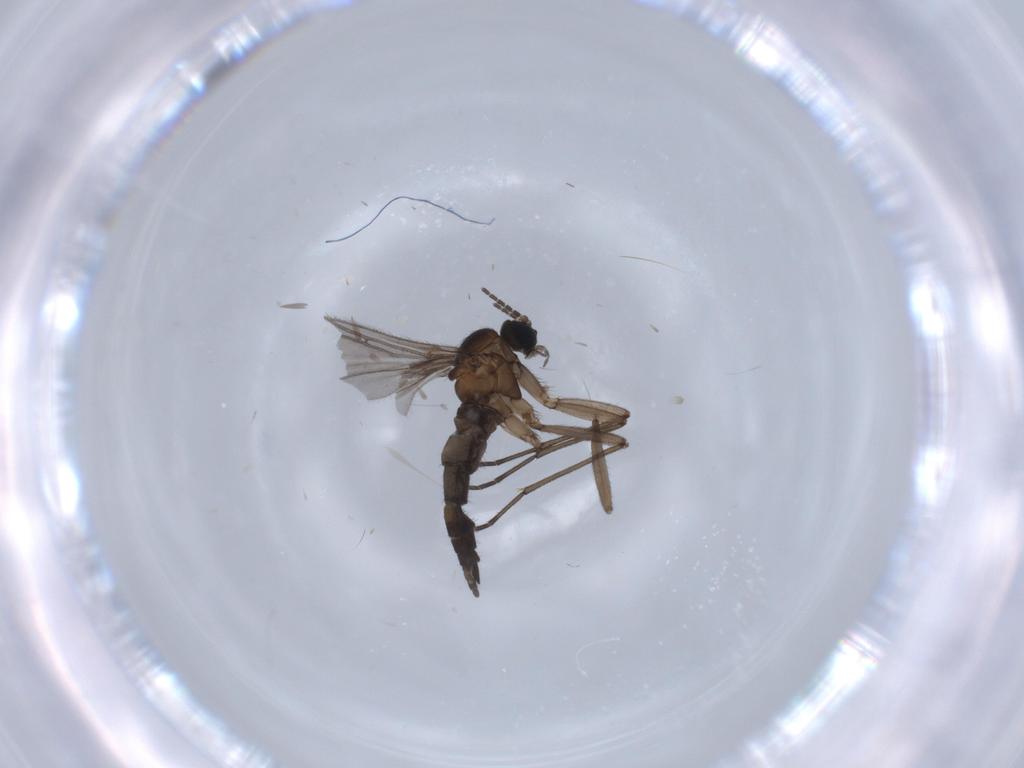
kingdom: Animalia
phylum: Arthropoda
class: Insecta
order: Diptera
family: Sciaridae
